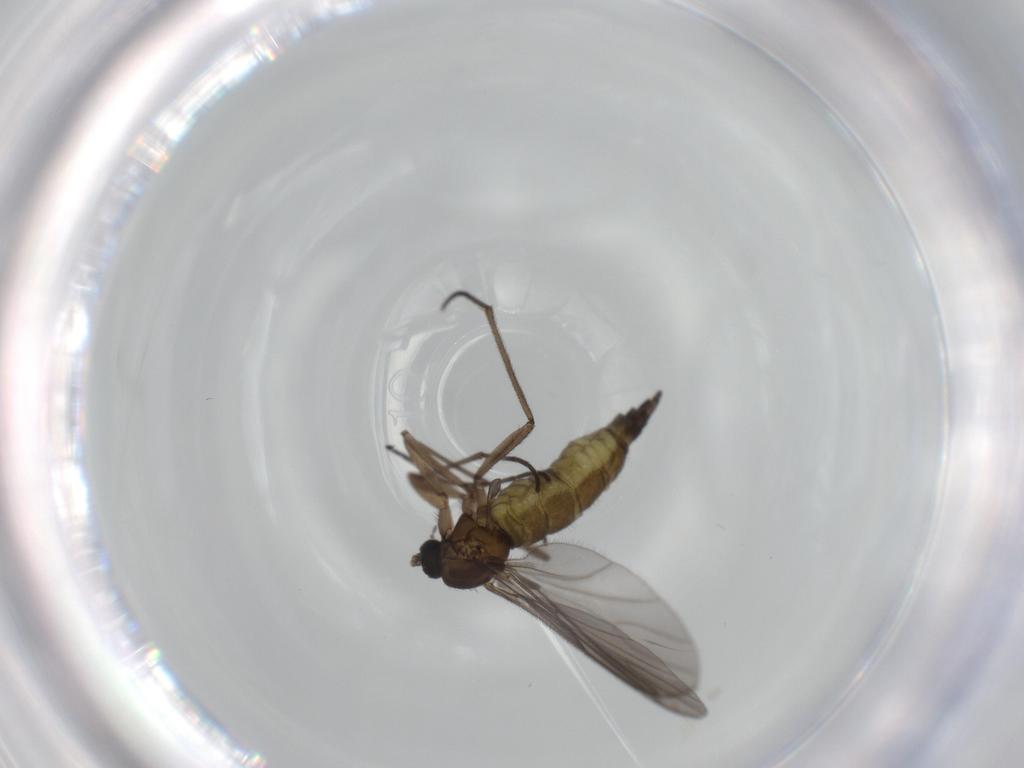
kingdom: Animalia
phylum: Arthropoda
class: Insecta
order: Diptera
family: Sciaridae
